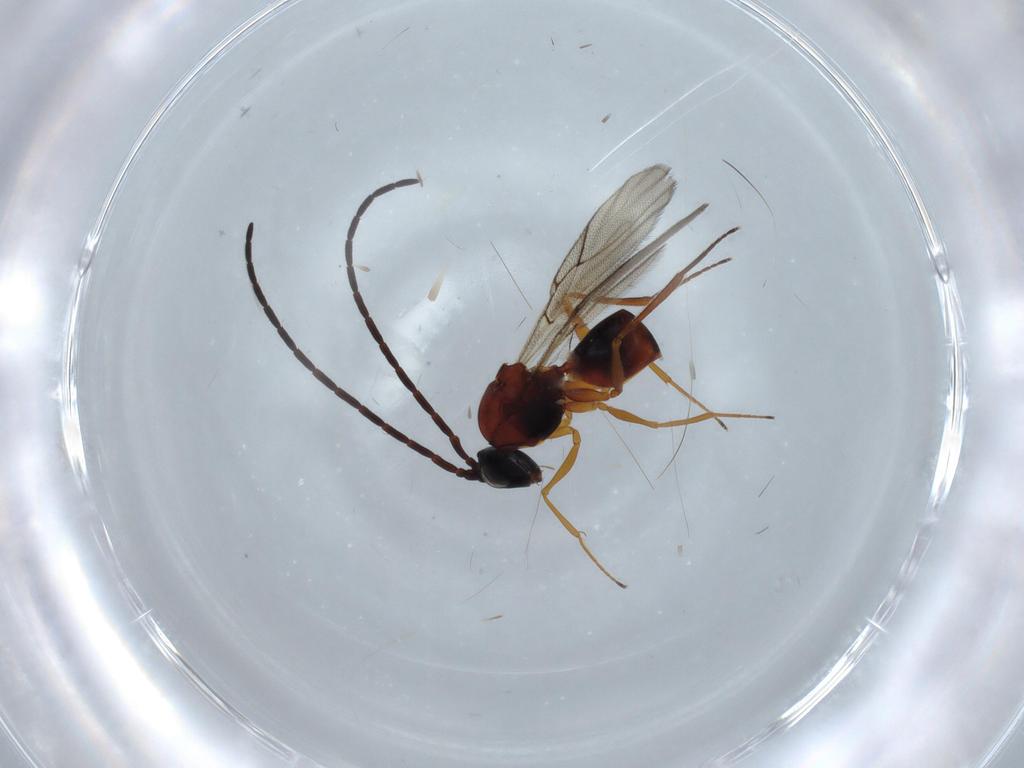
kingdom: Animalia
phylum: Arthropoda
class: Insecta
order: Hymenoptera
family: Figitidae
